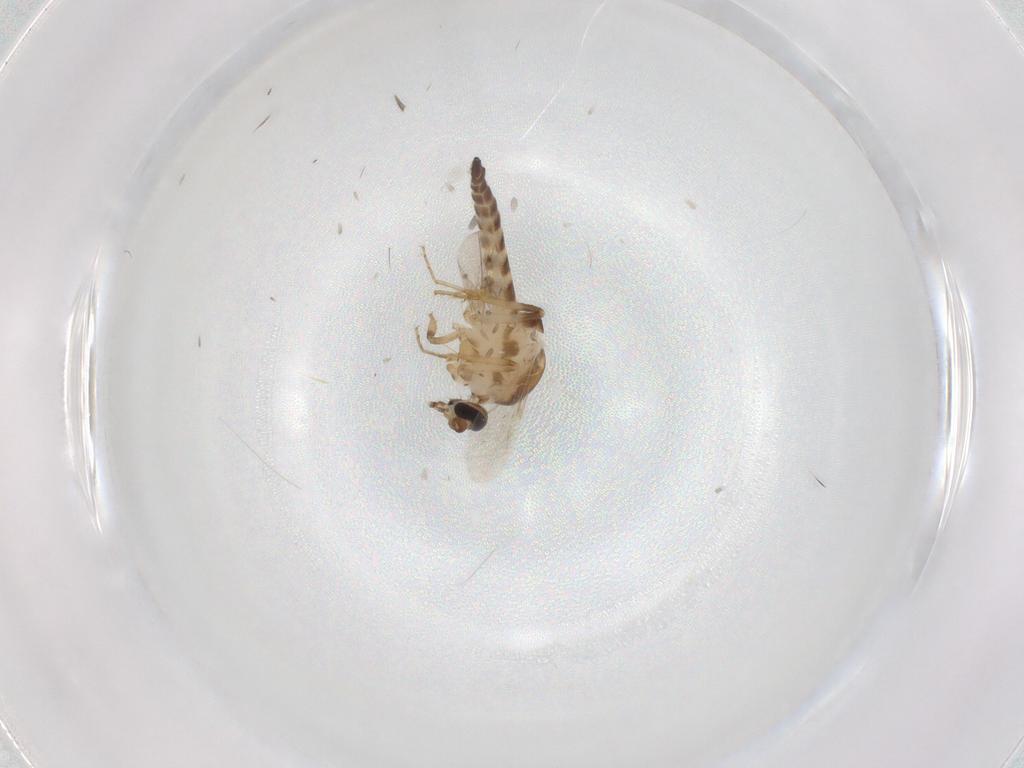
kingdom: Animalia
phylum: Arthropoda
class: Insecta
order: Diptera
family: Ceratopogonidae
